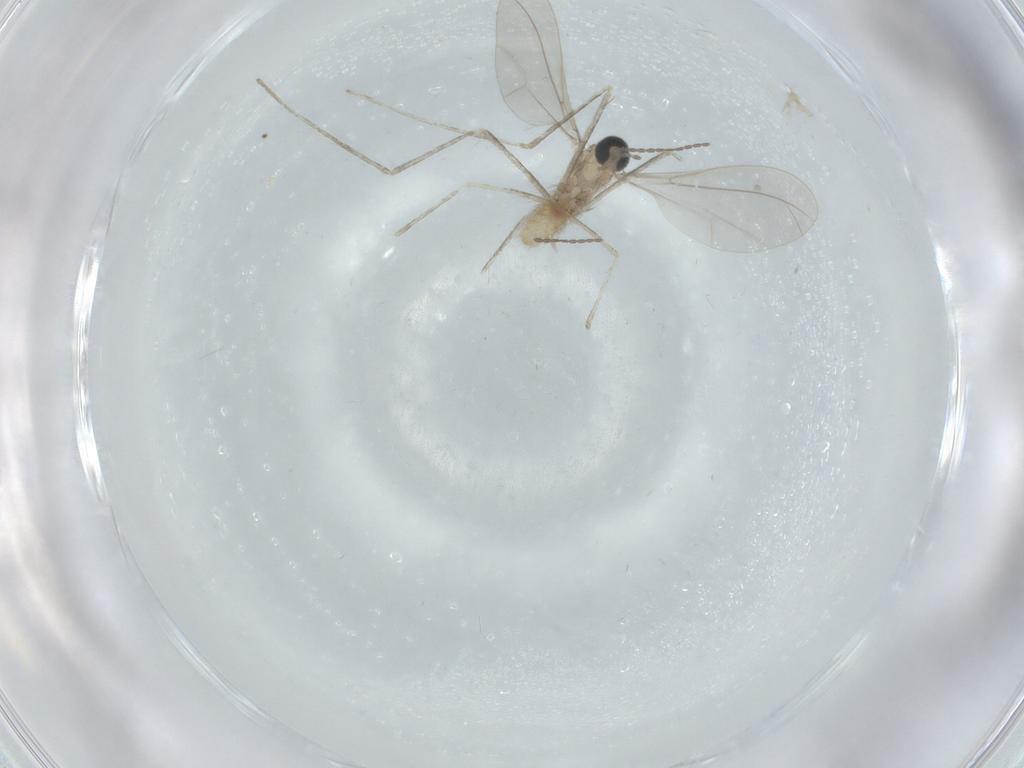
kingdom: Animalia
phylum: Arthropoda
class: Insecta
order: Diptera
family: Cecidomyiidae
